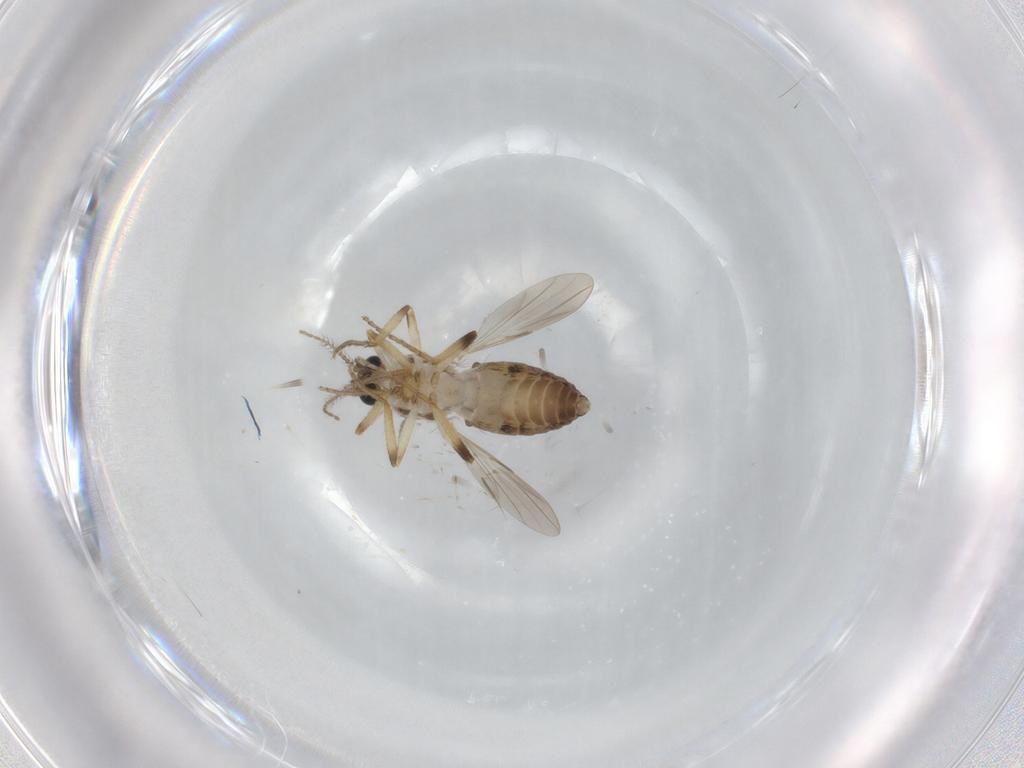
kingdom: Animalia
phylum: Arthropoda
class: Insecta
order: Diptera
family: Ceratopogonidae
